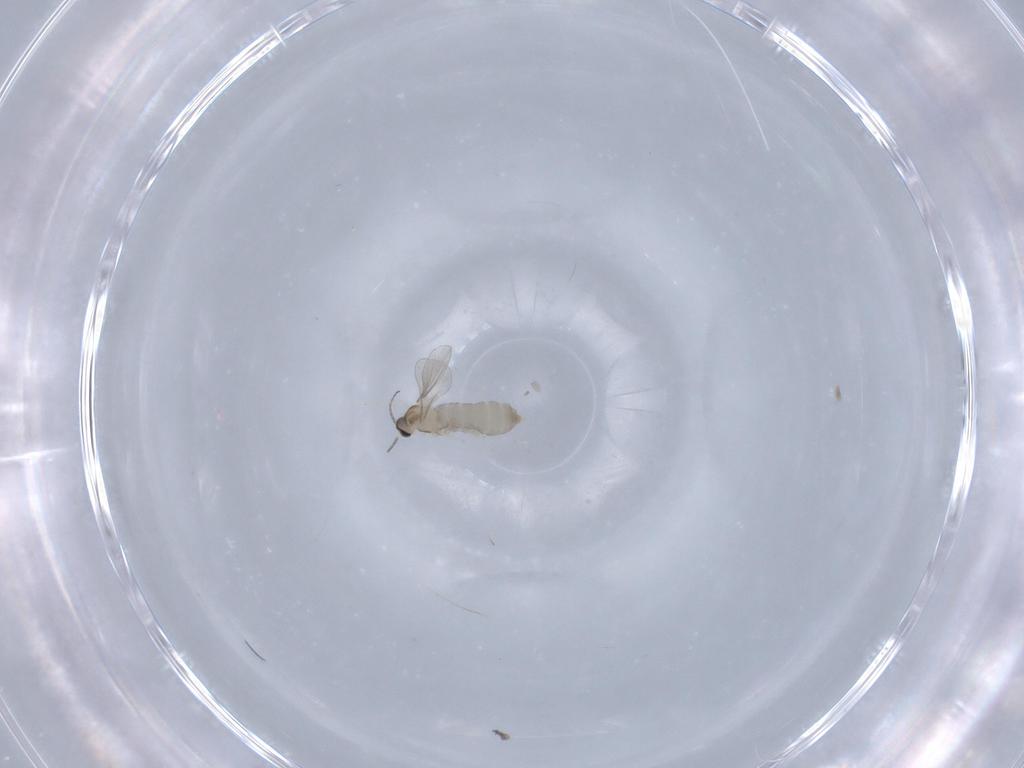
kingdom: Animalia
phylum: Arthropoda
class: Insecta
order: Diptera
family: Cecidomyiidae
